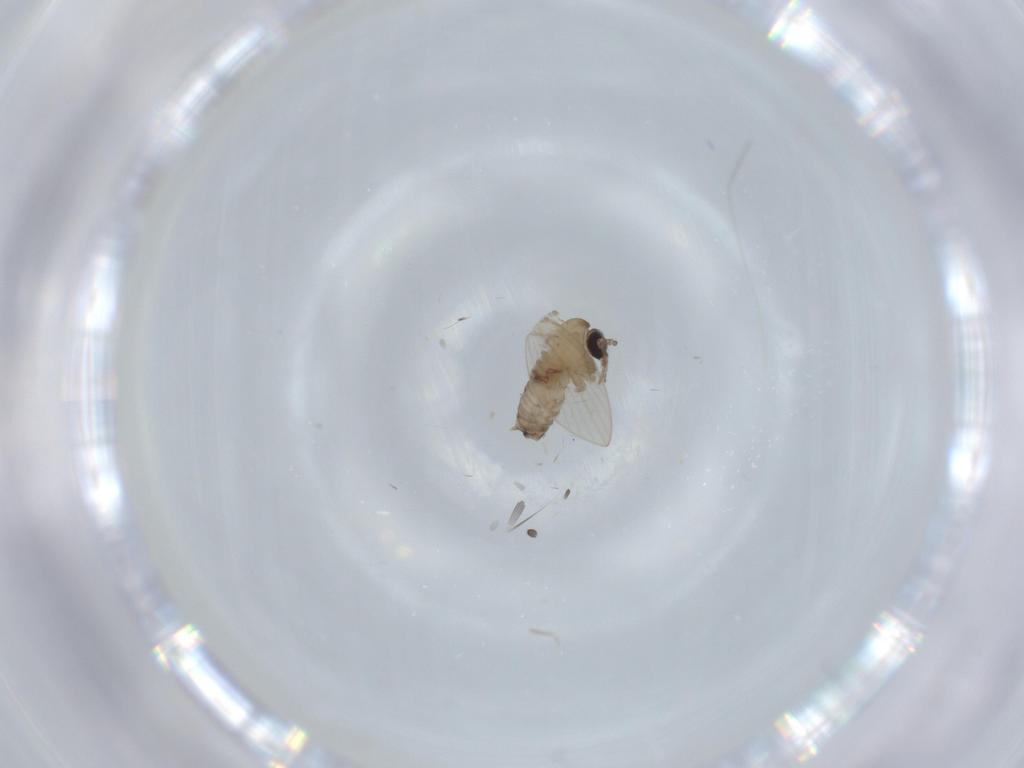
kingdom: Animalia
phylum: Arthropoda
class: Insecta
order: Diptera
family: Psychodidae
